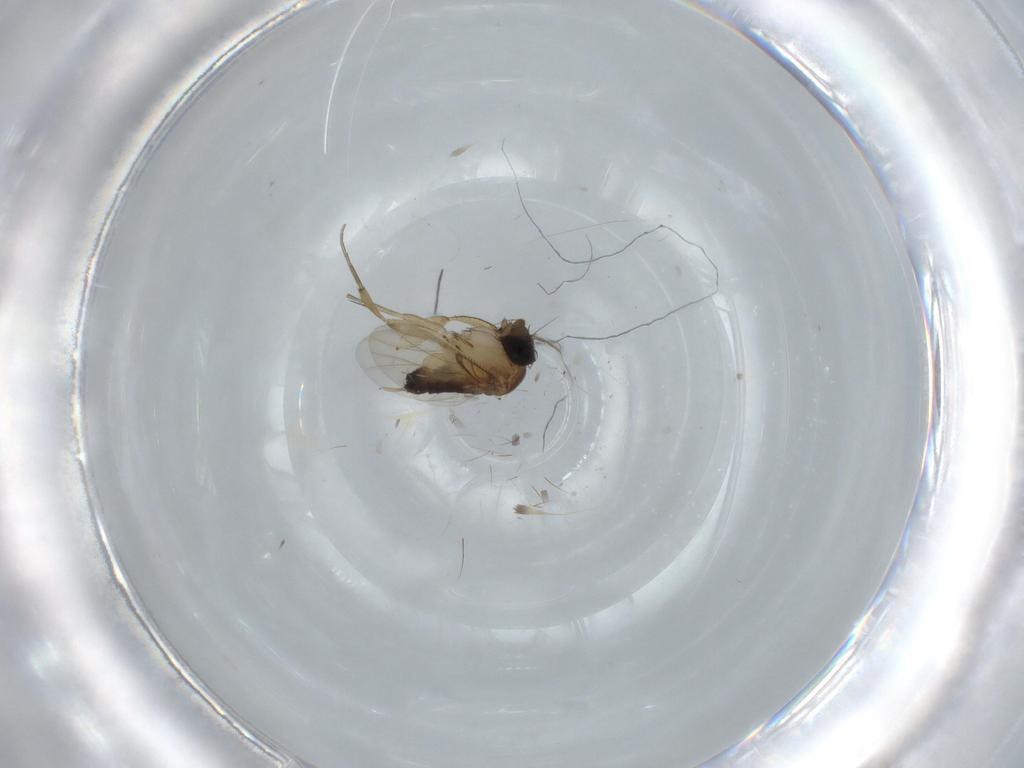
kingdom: Animalia
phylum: Arthropoda
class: Insecta
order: Diptera
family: Phoridae
